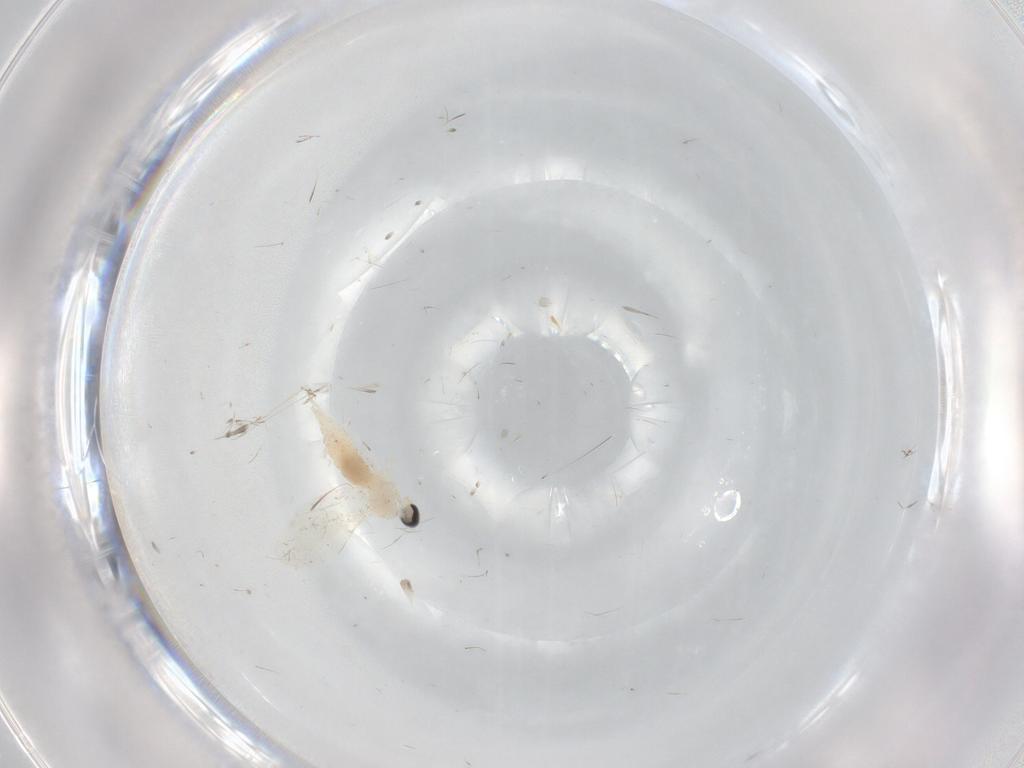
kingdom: Animalia
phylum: Arthropoda
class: Insecta
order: Diptera
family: Cecidomyiidae
